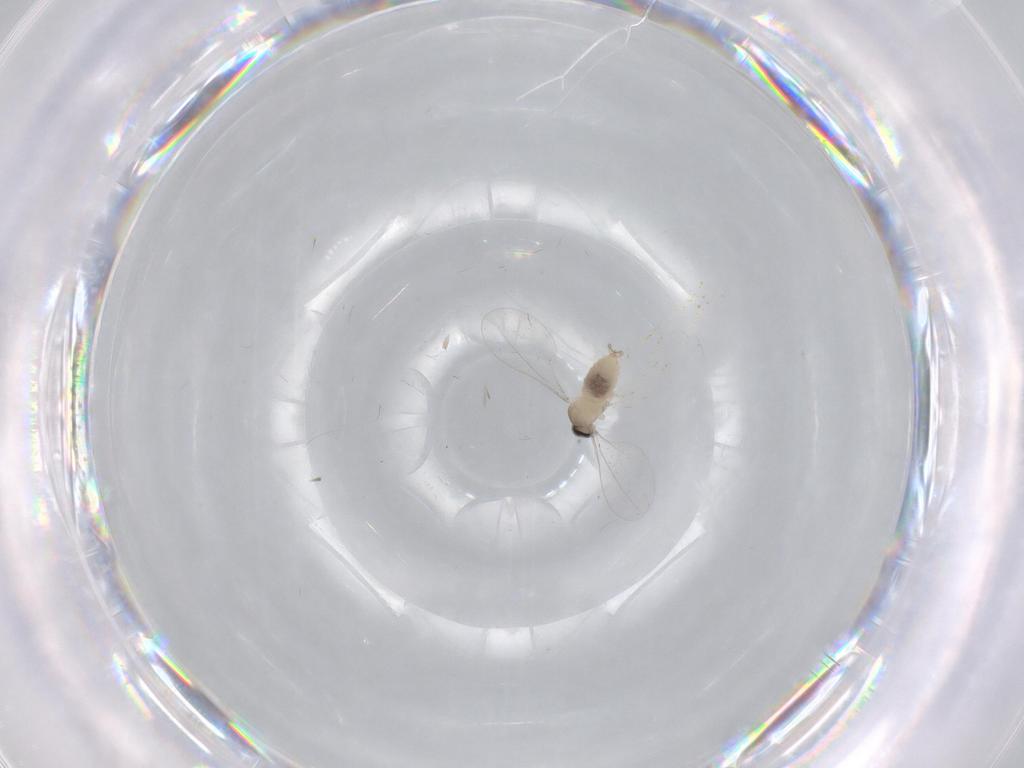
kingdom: Animalia
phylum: Arthropoda
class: Insecta
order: Diptera
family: Cecidomyiidae
